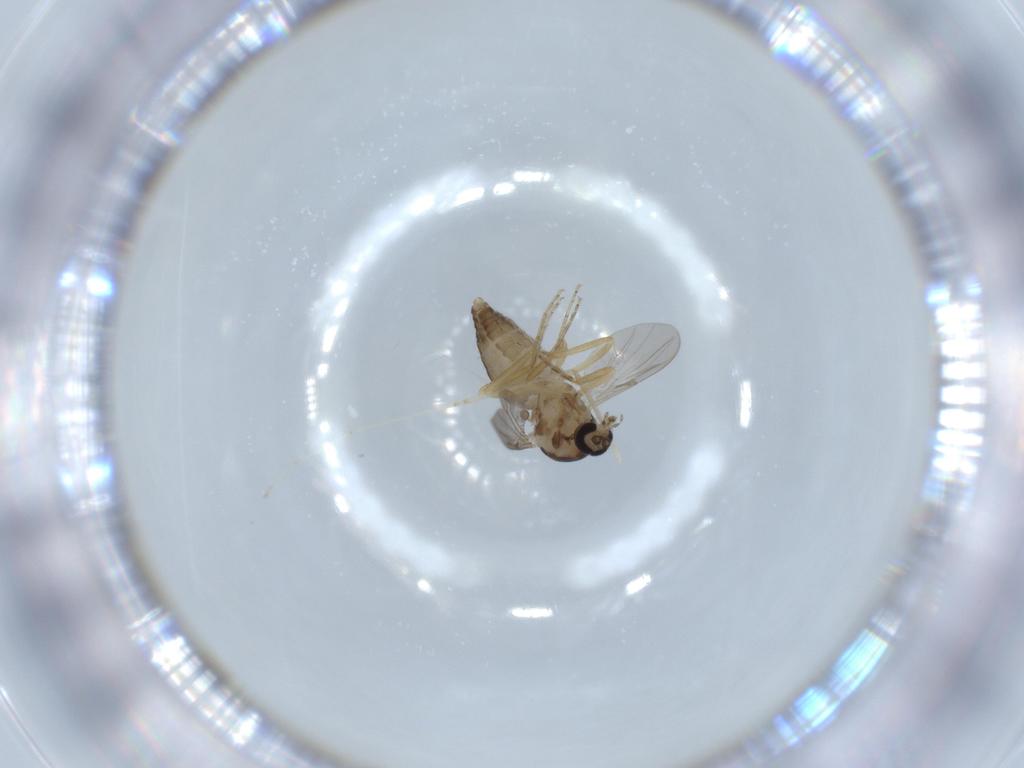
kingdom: Animalia
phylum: Arthropoda
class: Insecta
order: Diptera
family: Ceratopogonidae
